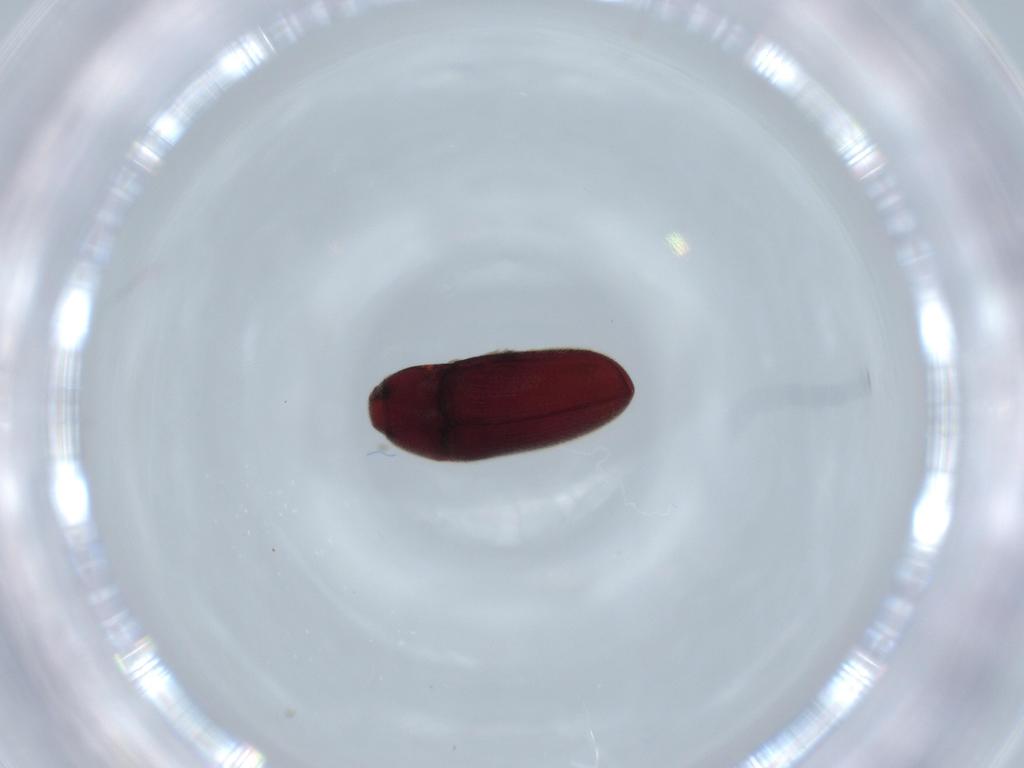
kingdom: Animalia
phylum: Arthropoda
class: Insecta
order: Coleoptera
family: Throscidae
